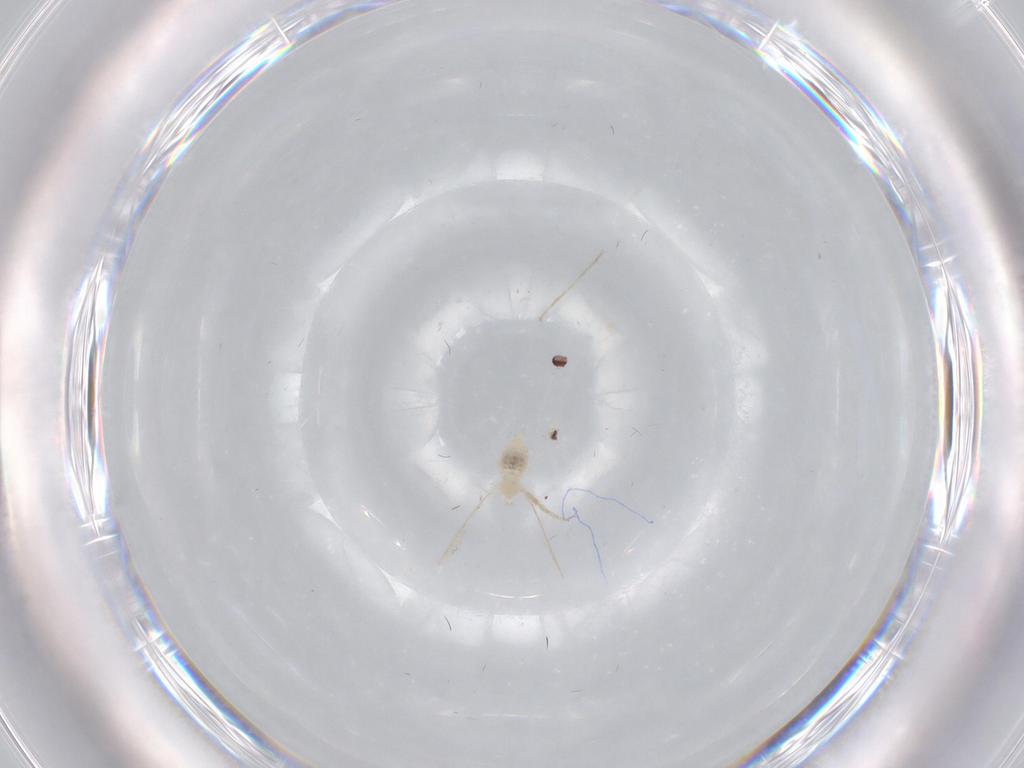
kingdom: Animalia
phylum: Arthropoda
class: Insecta
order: Diptera
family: Cecidomyiidae
